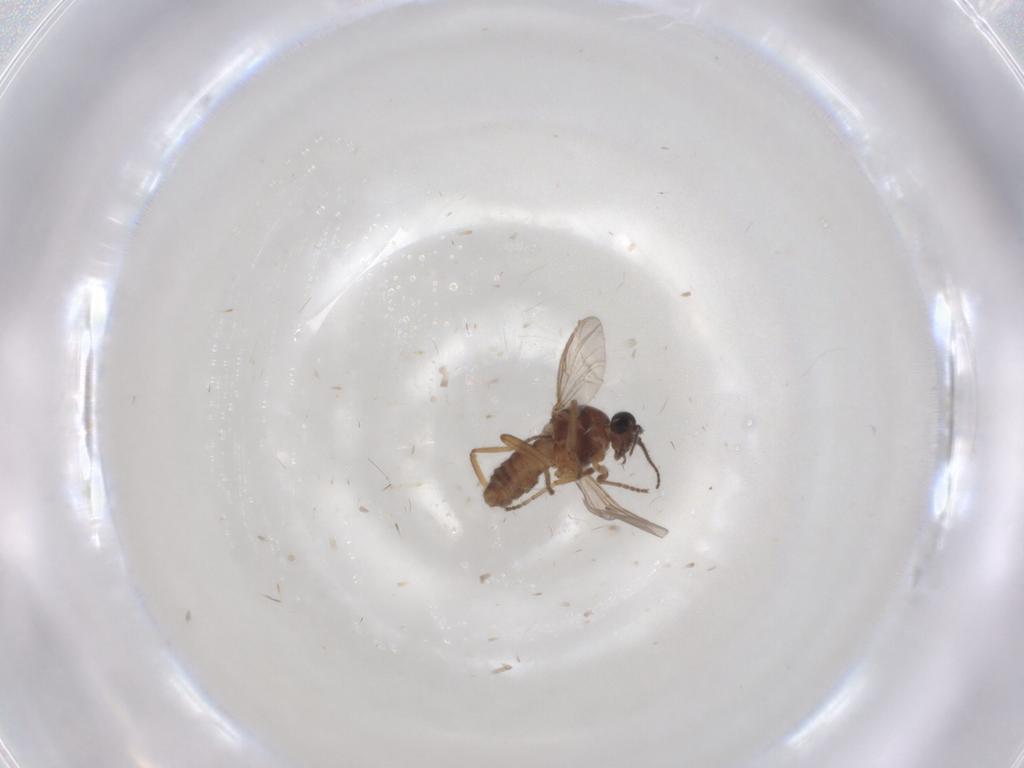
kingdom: Animalia
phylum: Arthropoda
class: Insecta
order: Diptera
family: Ceratopogonidae
